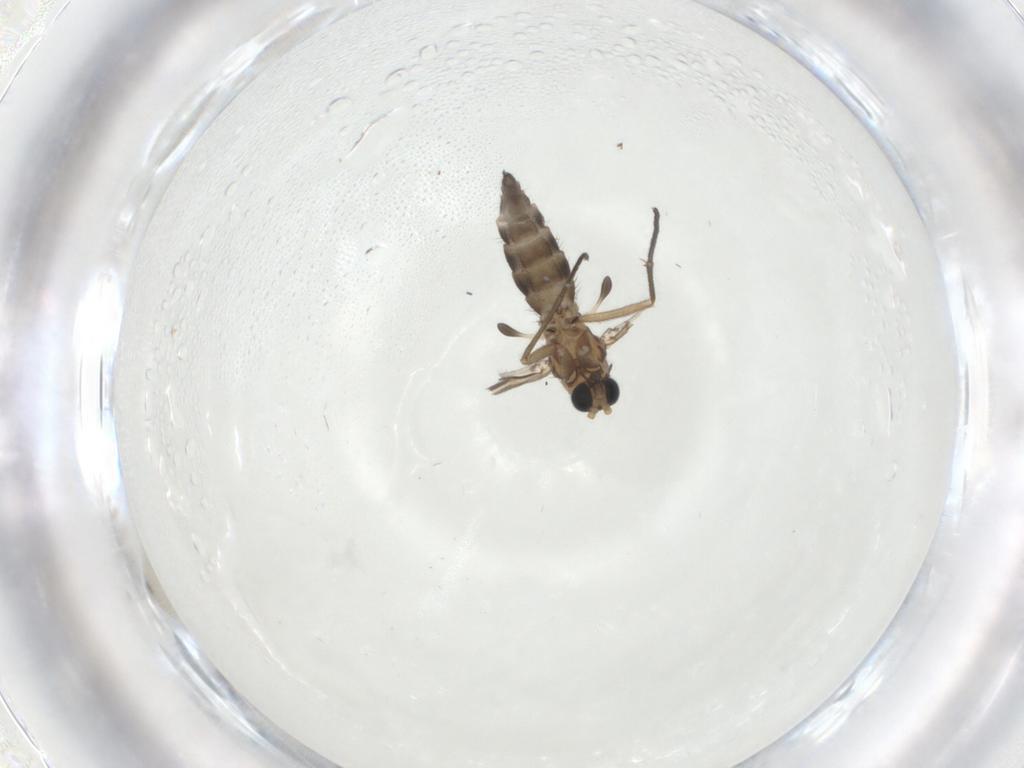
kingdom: Animalia
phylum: Arthropoda
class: Insecta
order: Diptera
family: Sciaridae
